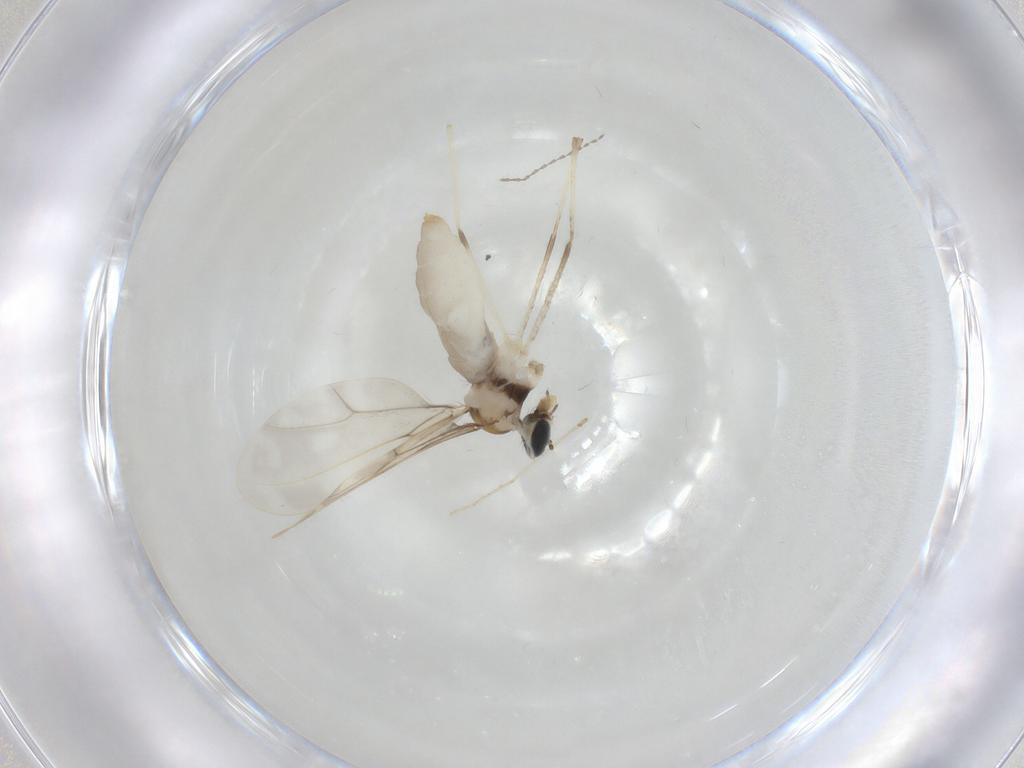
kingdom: Animalia
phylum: Arthropoda
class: Insecta
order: Diptera
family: Cecidomyiidae
